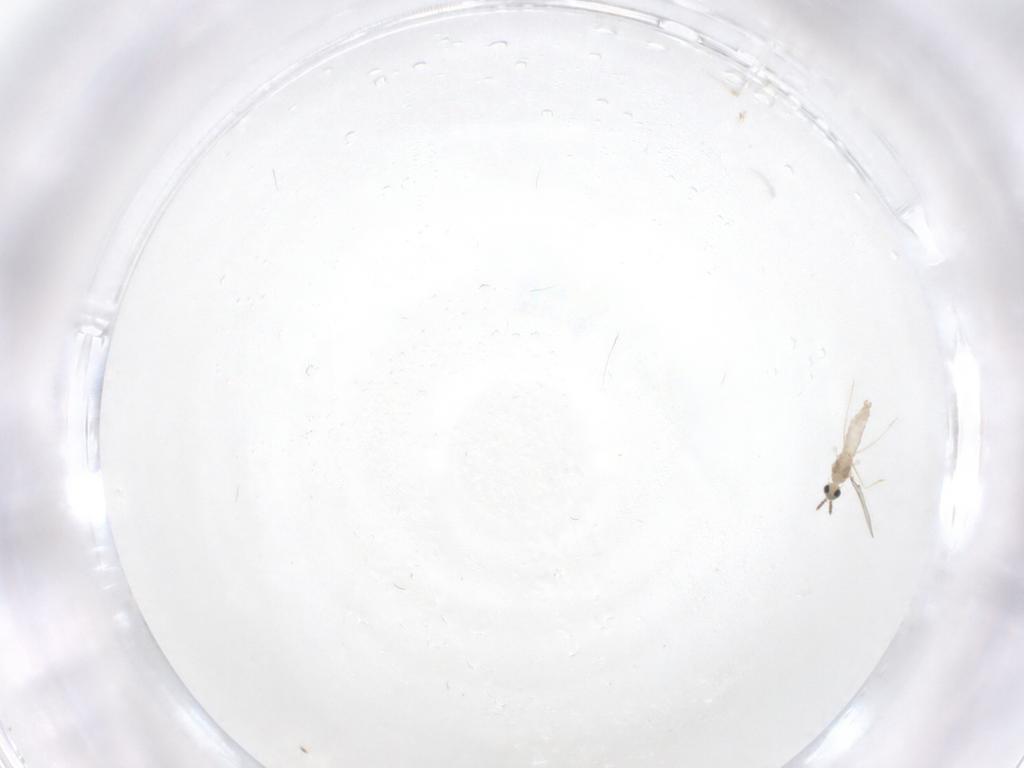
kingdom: Animalia
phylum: Arthropoda
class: Insecta
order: Diptera
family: Cecidomyiidae
